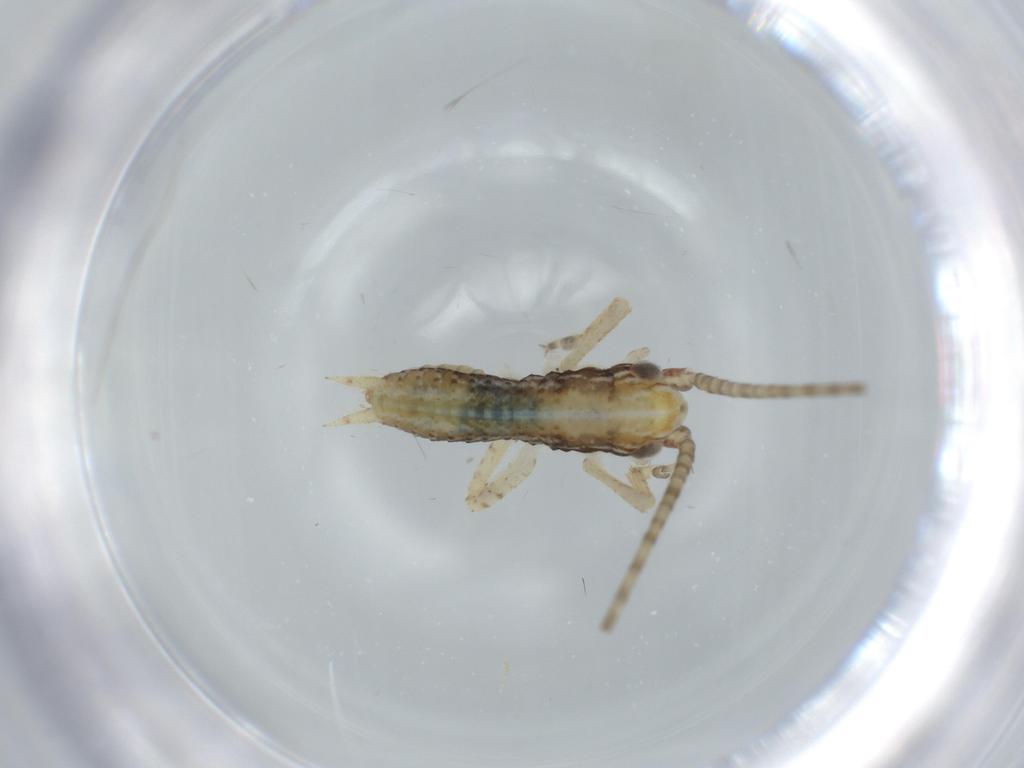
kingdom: Animalia
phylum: Arthropoda
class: Insecta
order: Orthoptera
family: Gryllidae
